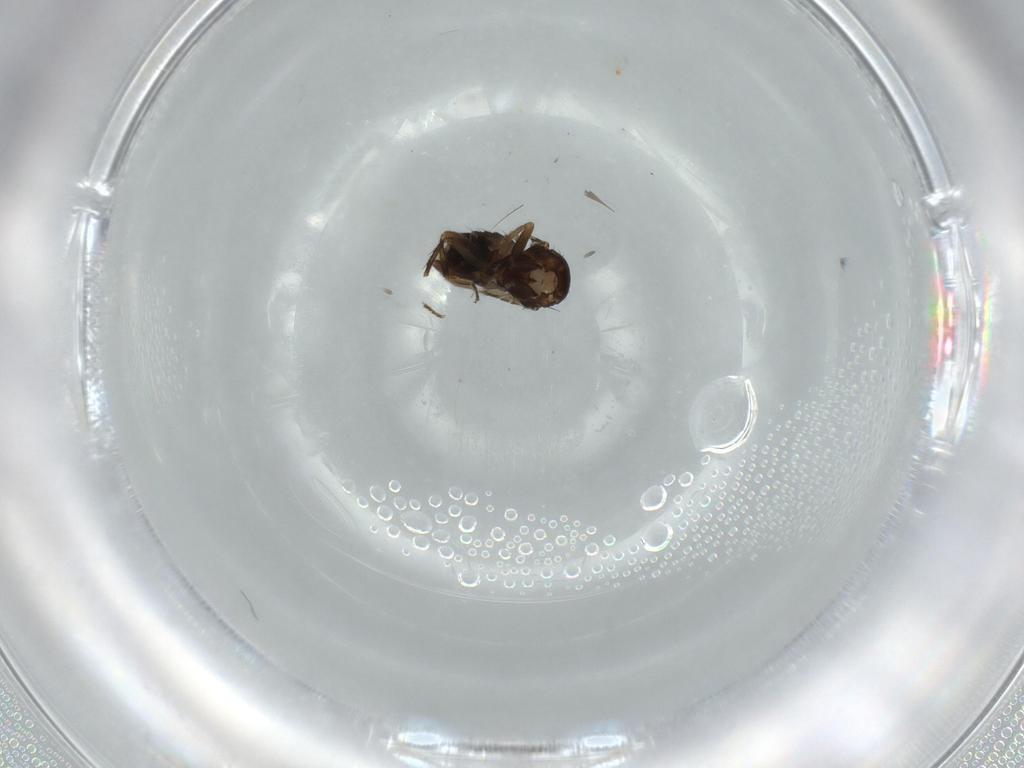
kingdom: Animalia
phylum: Arthropoda
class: Insecta
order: Diptera
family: Sphaeroceridae
